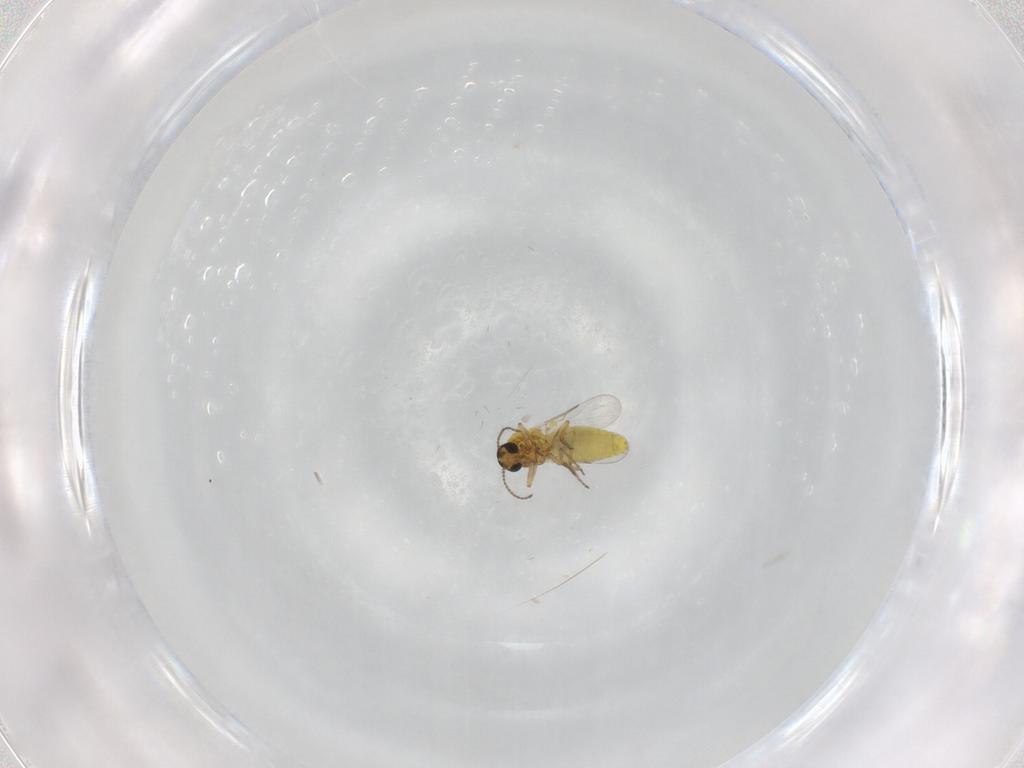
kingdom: Animalia
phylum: Arthropoda
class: Insecta
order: Diptera
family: Ceratopogonidae
